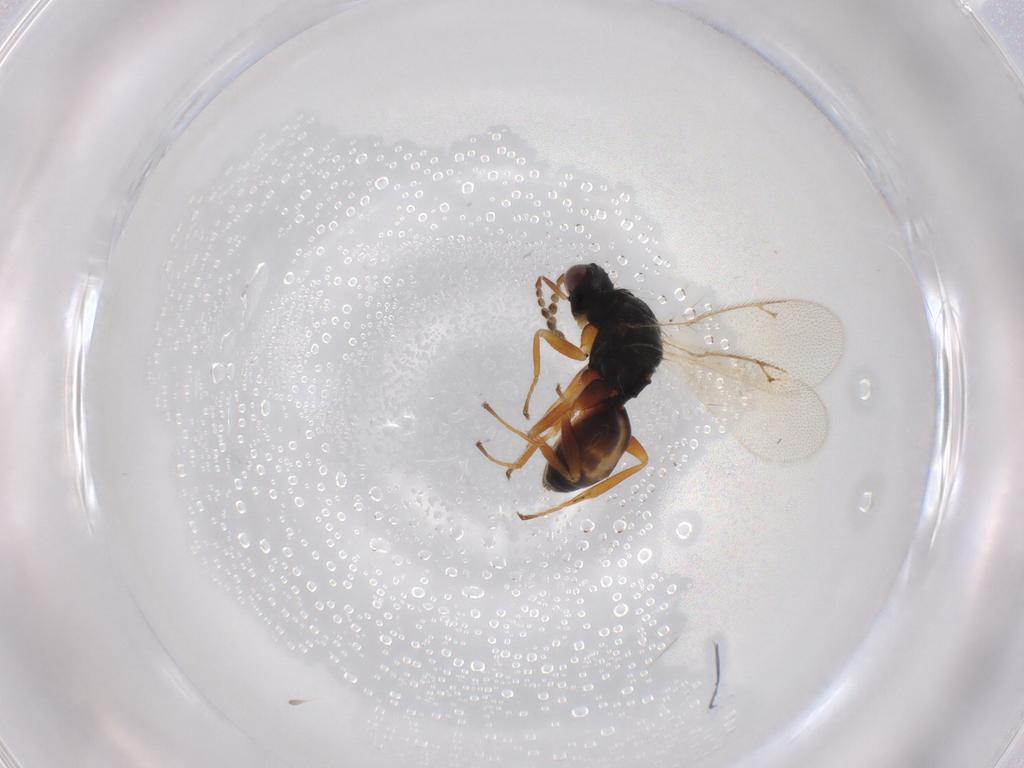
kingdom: Animalia
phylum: Arthropoda
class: Insecta
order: Hymenoptera
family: Eulophidae
